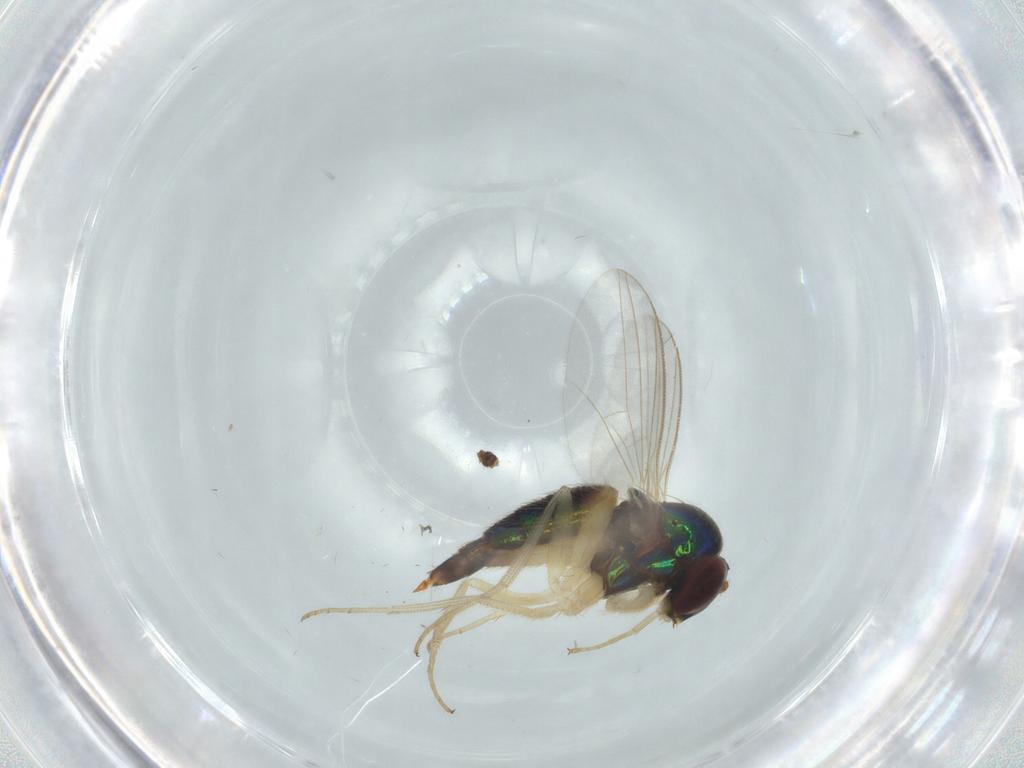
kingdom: Animalia
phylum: Arthropoda
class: Insecta
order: Diptera
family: Dolichopodidae
